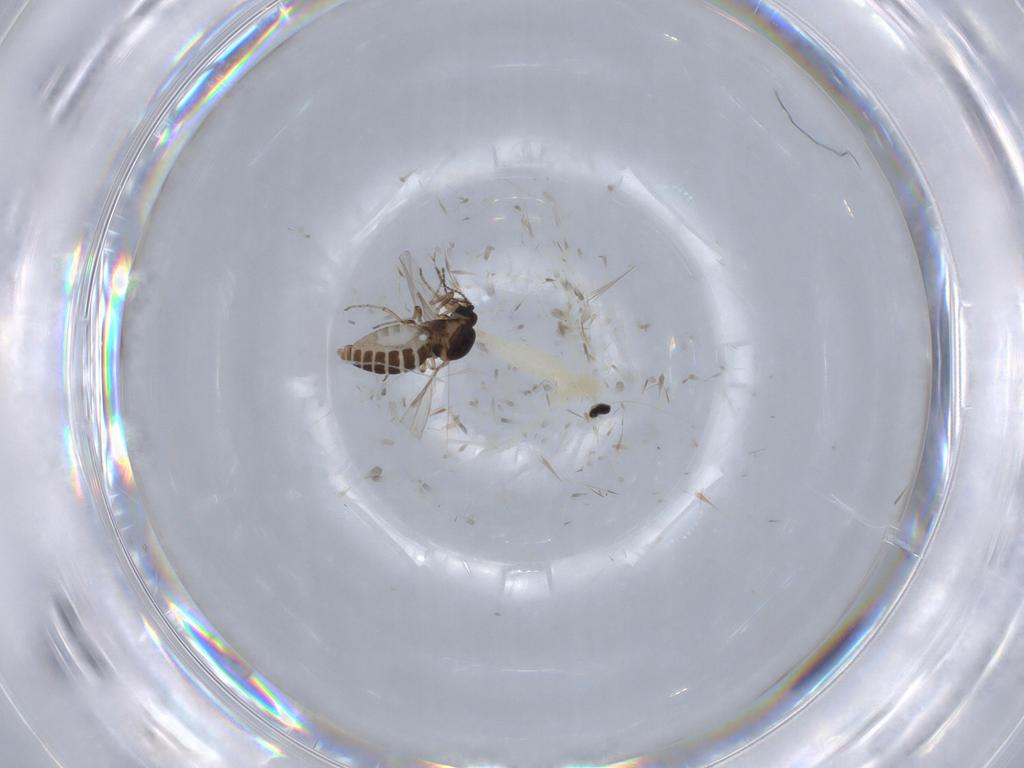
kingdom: Animalia
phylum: Arthropoda
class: Insecta
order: Diptera
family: Cecidomyiidae
